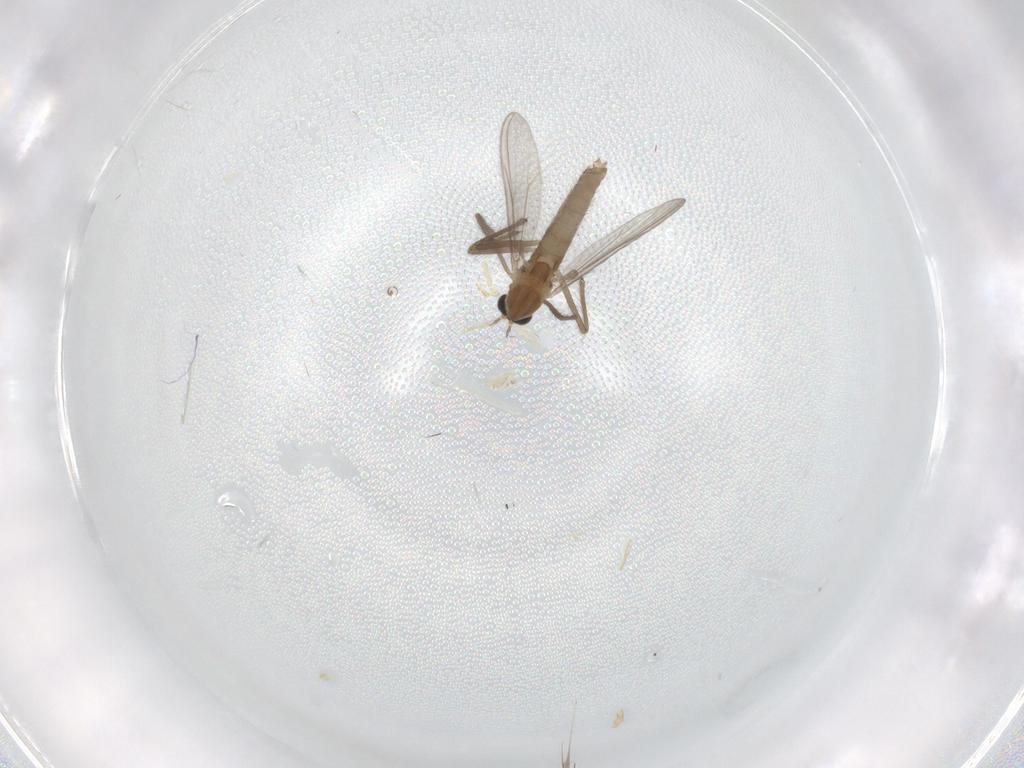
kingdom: Animalia
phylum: Arthropoda
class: Insecta
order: Diptera
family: Chironomidae
